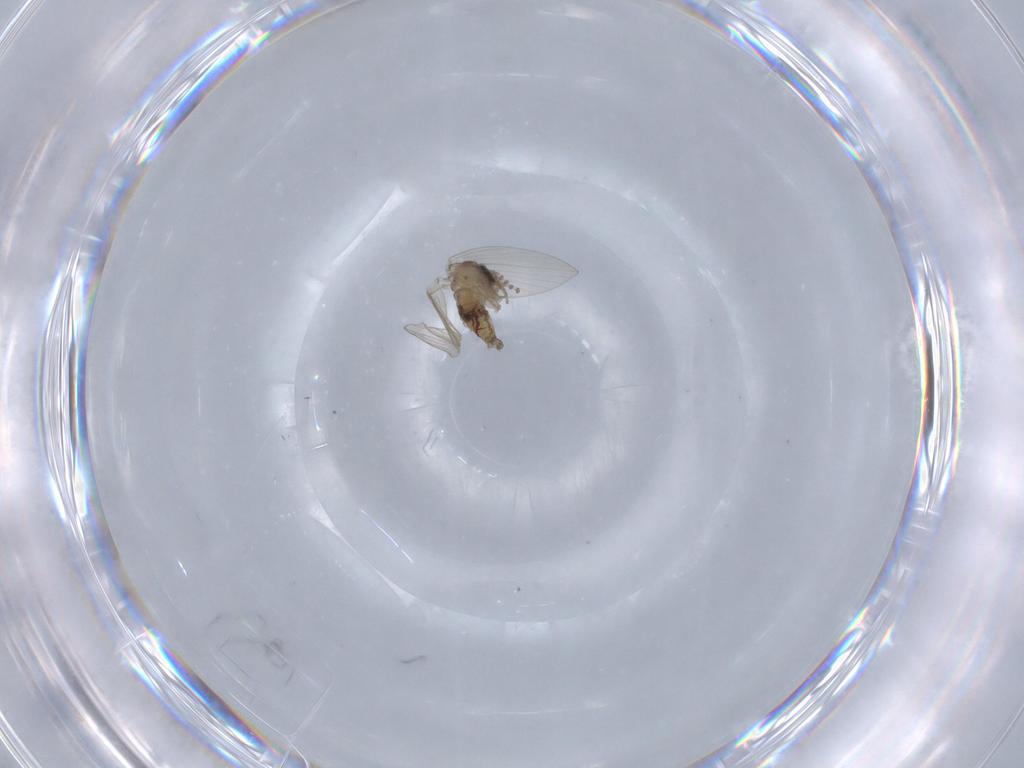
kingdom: Animalia
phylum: Arthropoda
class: Insecta
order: Diptera
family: Psychodidae
